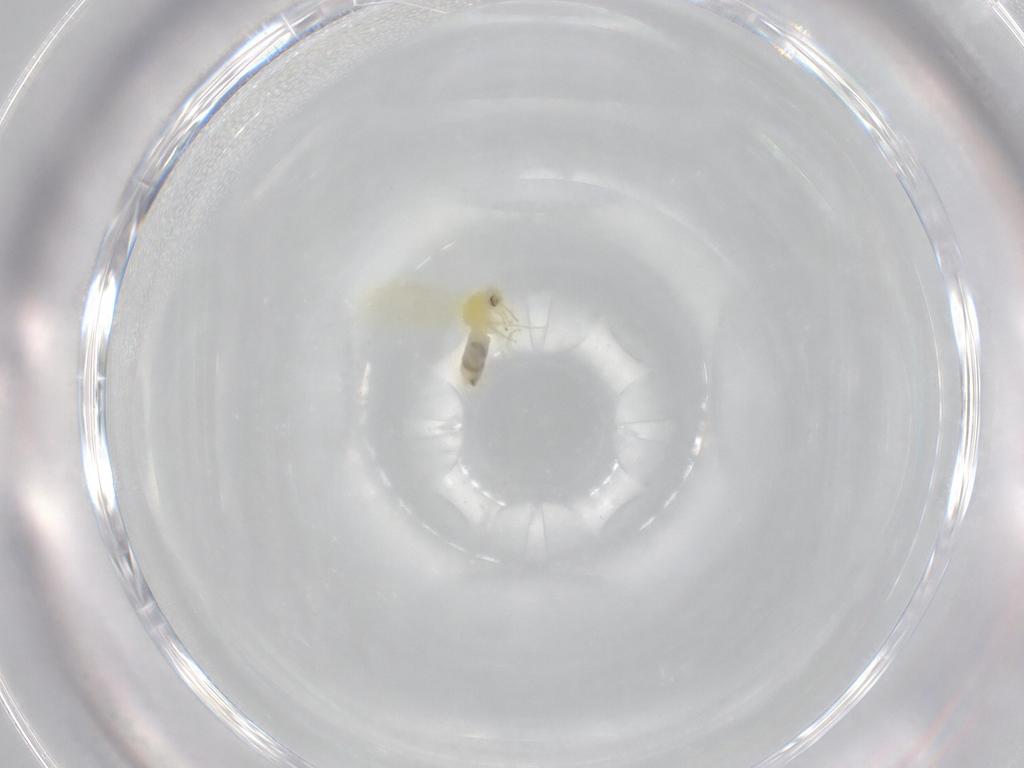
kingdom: Animalia
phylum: Arthropoda
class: Insecta
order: Hemiptera
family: Aleyrodidae
